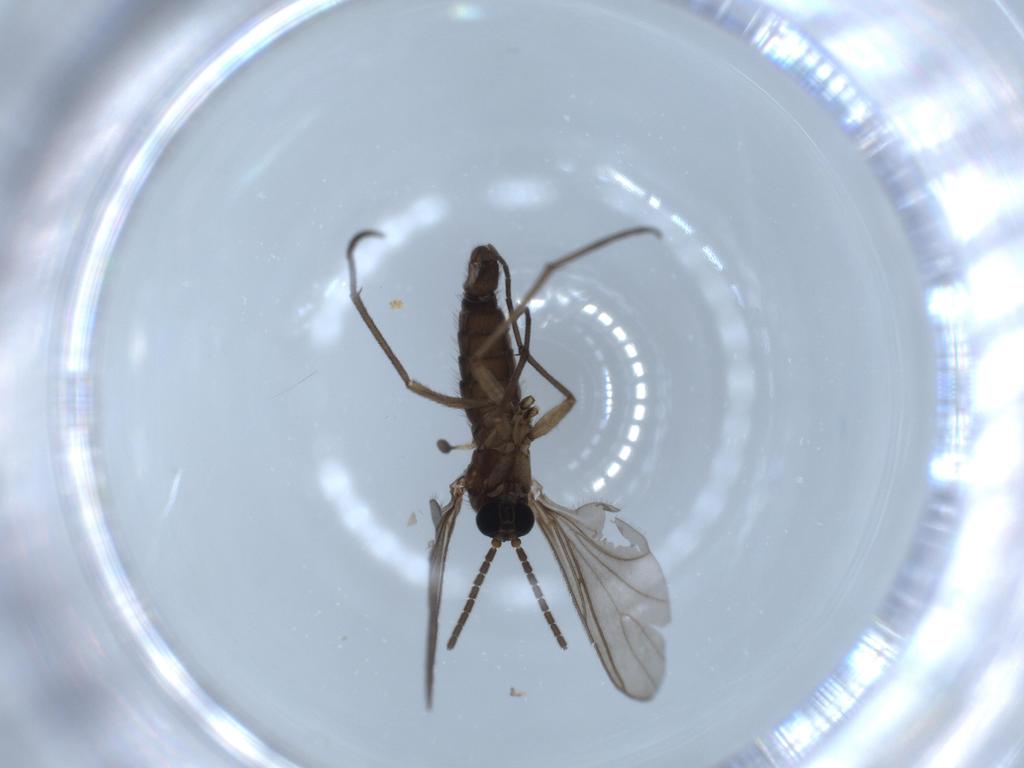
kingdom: Animalia
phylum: Arthropoda
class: Insecta
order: Diptera
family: Sciaridae
